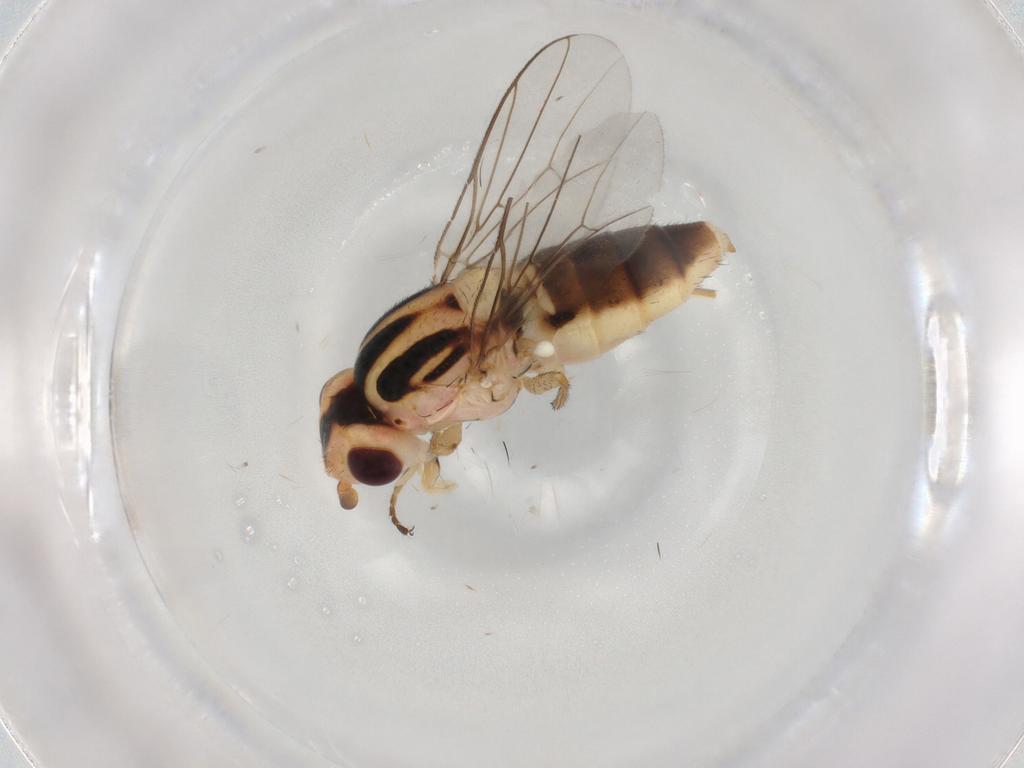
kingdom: Animalia
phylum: Arthropoda
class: Insecta
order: Diptera
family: Chloropidae
